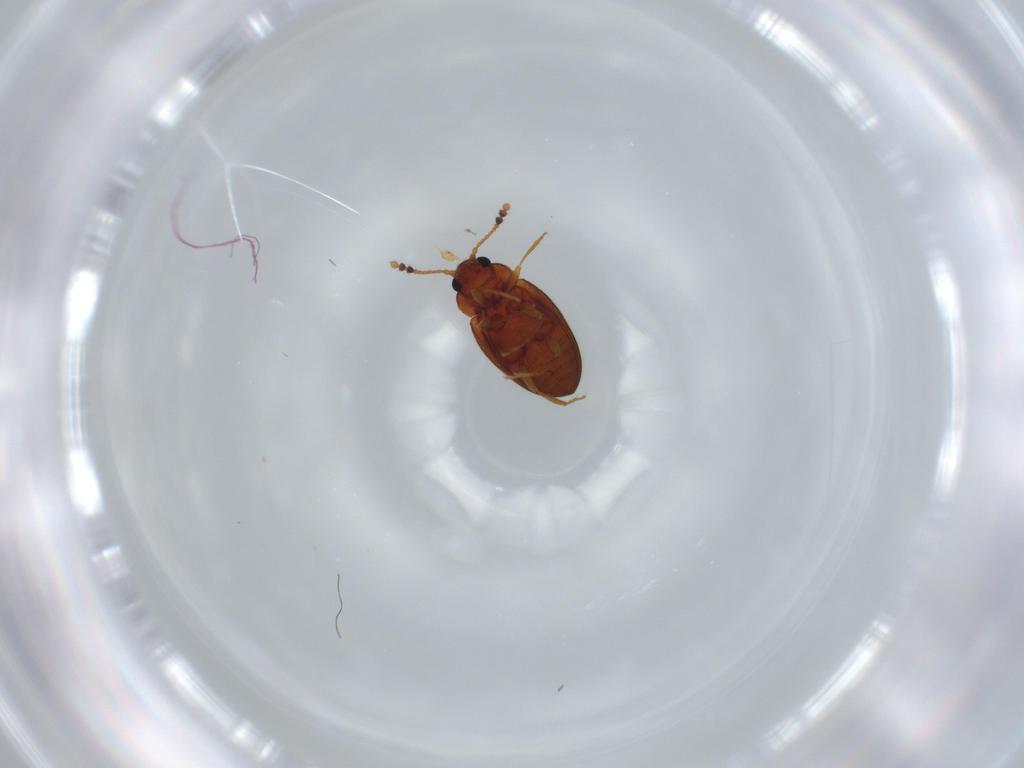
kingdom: Animalia
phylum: Arthropoda
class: Insecta
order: Coleoptera
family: Erotylidae
